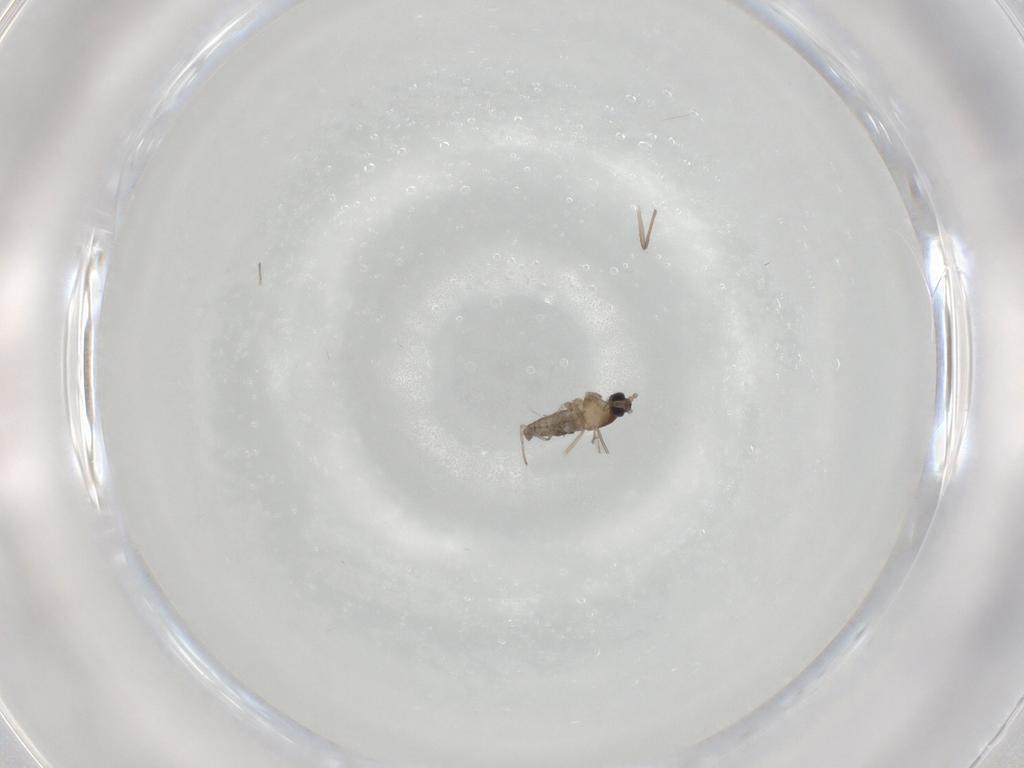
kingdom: Animalia
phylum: Arthropoda
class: Insecta
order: Diptera
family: Cecidomyiidae
